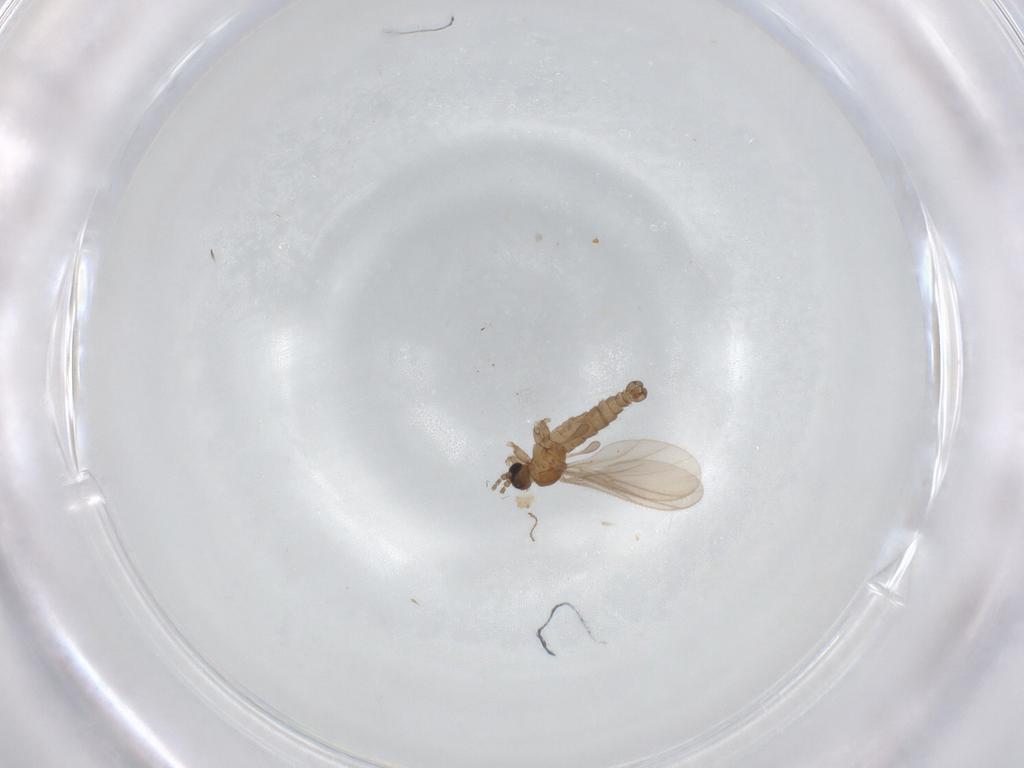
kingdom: Animalia
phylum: Arthropoda
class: Insecta
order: Diptera
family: Sciaridae
